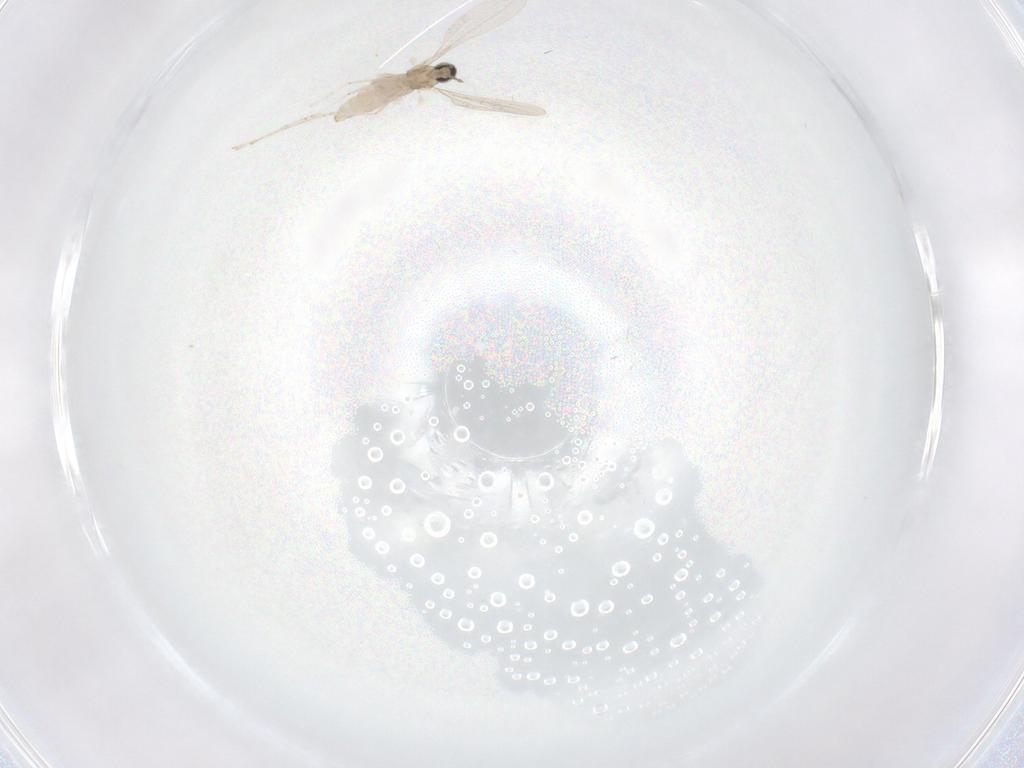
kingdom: Animalia
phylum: Arthropoda
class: Insecta
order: Diptera
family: Cecidomyiidae
